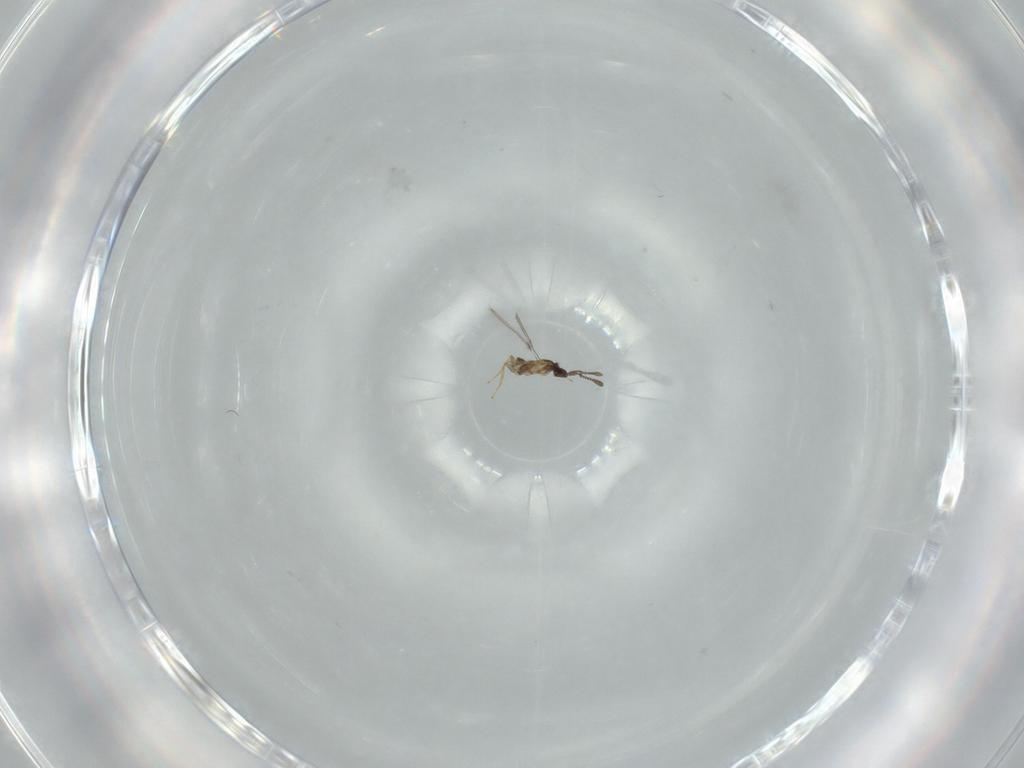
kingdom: Animalia
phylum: Arthropoda
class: Insecta
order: Hymenoptera
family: Mymaridae
